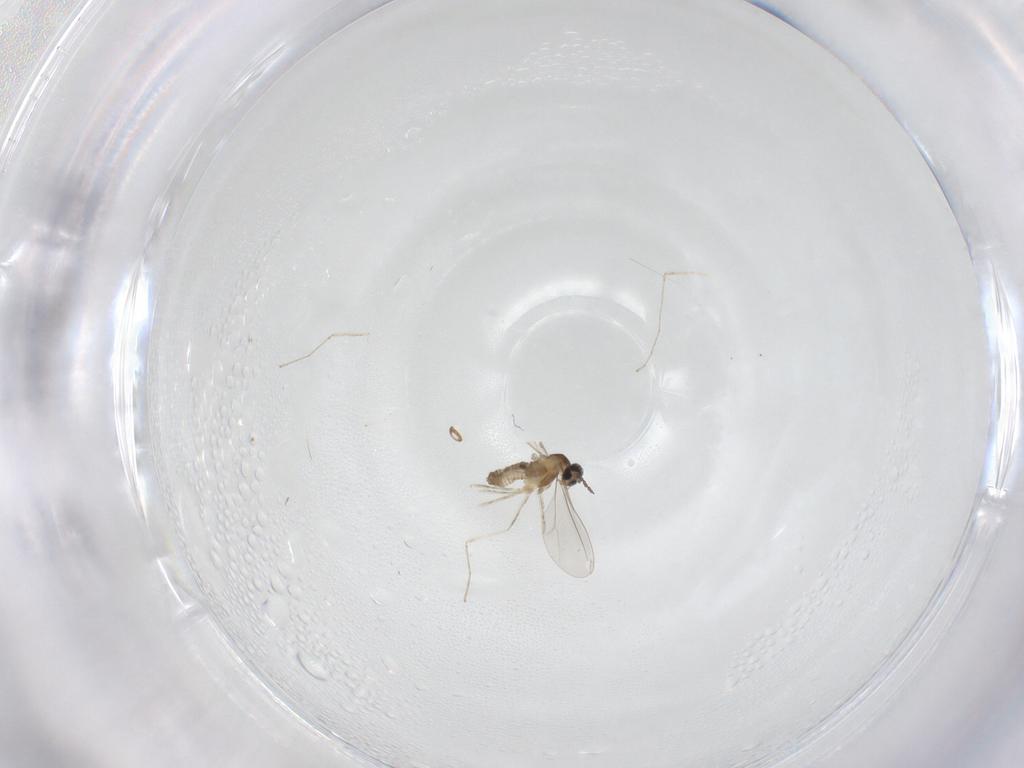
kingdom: Animalia
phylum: Arthropoda
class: Insecta
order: Diptera
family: Cecidomyiidae
